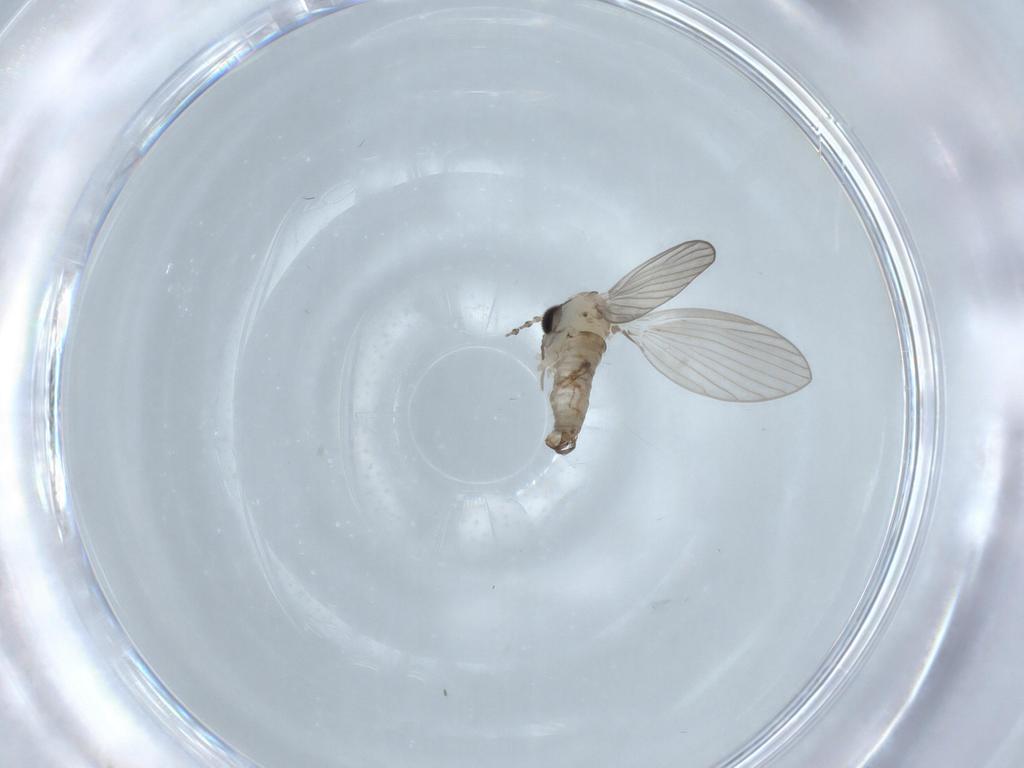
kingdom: Animalia
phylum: Arthropoda
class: Insecta
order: Diptera
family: Psychodidae
